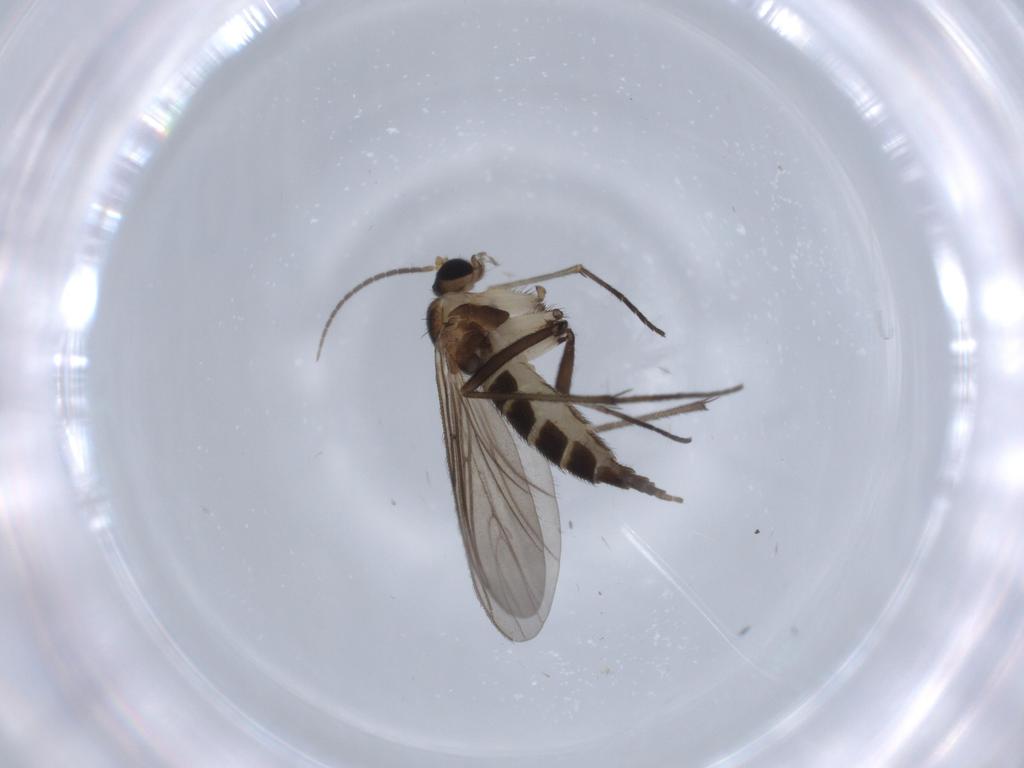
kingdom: Animalia
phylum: Arthropoda
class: Insecta
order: Diptera
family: Sciaridae
